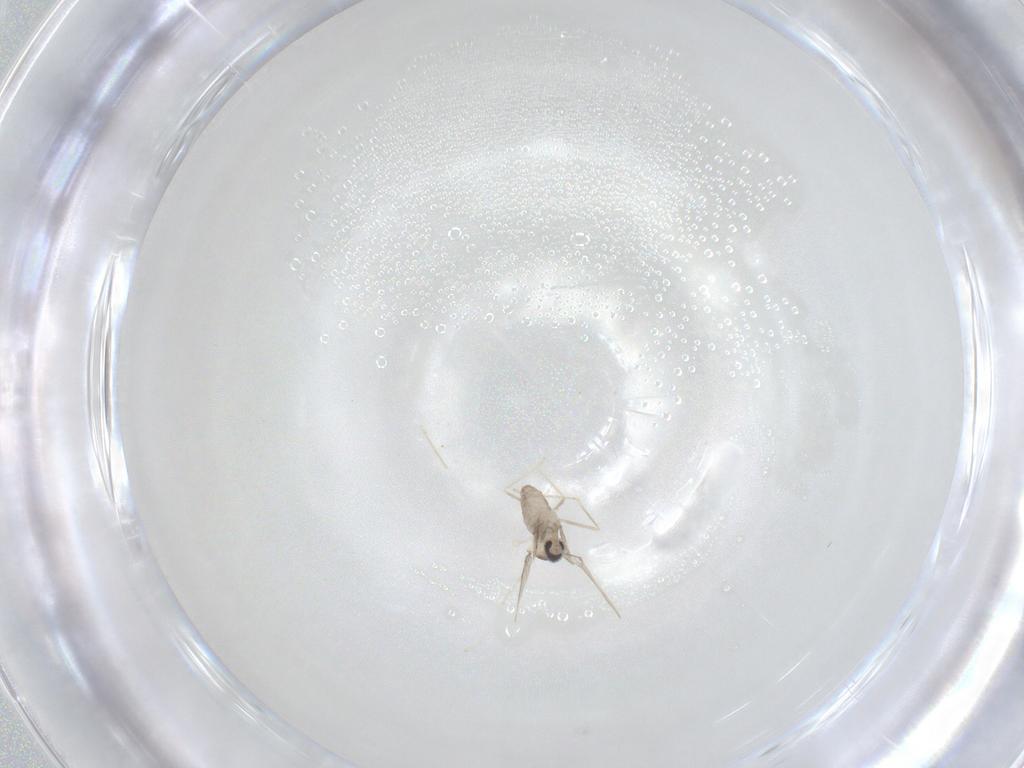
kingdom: Animalia
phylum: Arthropoda
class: Insecta
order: Diptera
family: Cecidomyiidae
